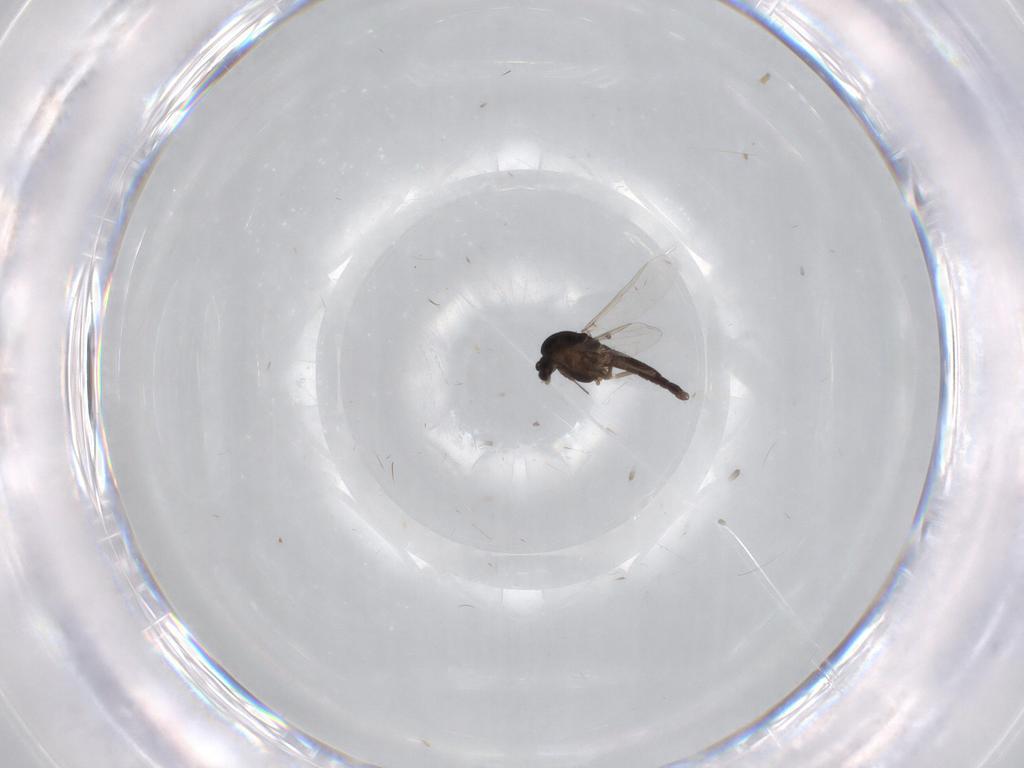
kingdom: Animalia
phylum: Arthropoda
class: Insecta
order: Diptera
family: Chironomidae
